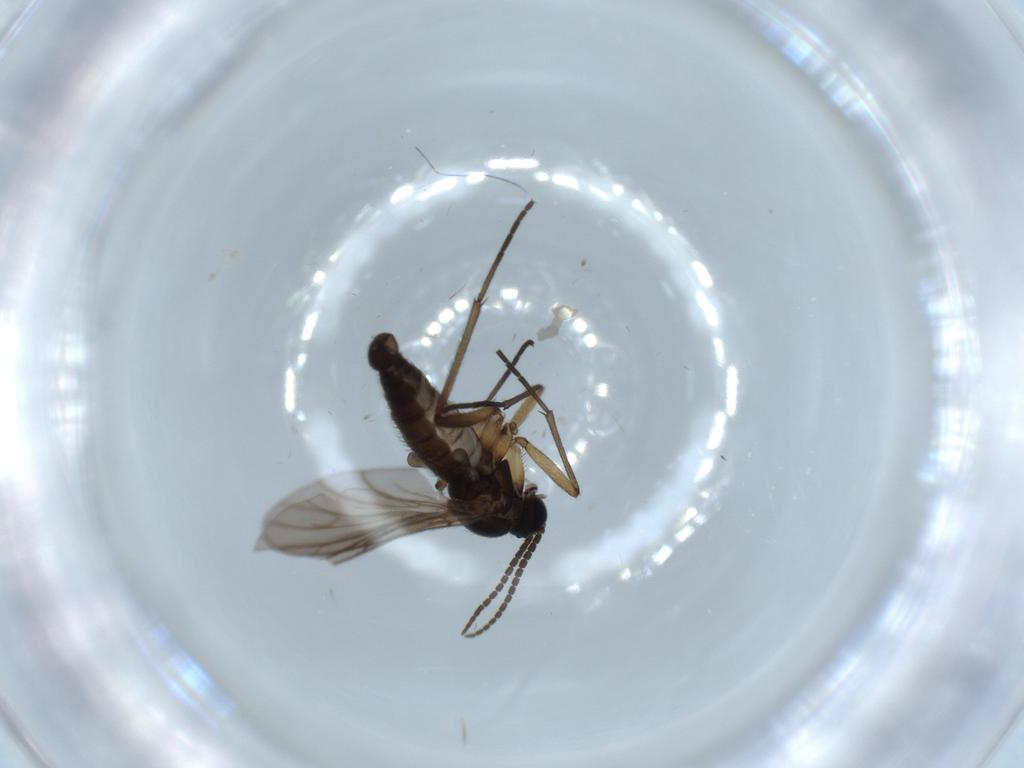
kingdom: Animalia
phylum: Arthropoda
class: Insecta
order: Diptera
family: Sciaridae
